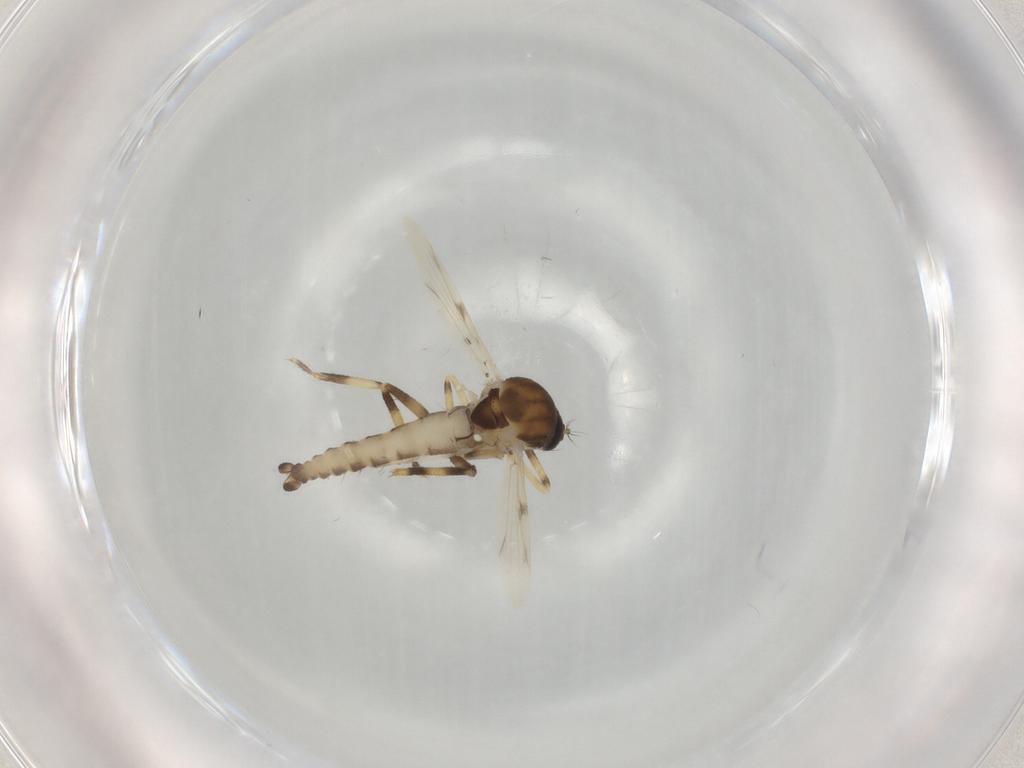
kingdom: Animalia
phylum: Arthropoda
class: Insecta
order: Diptera
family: Ceratopogonidae
